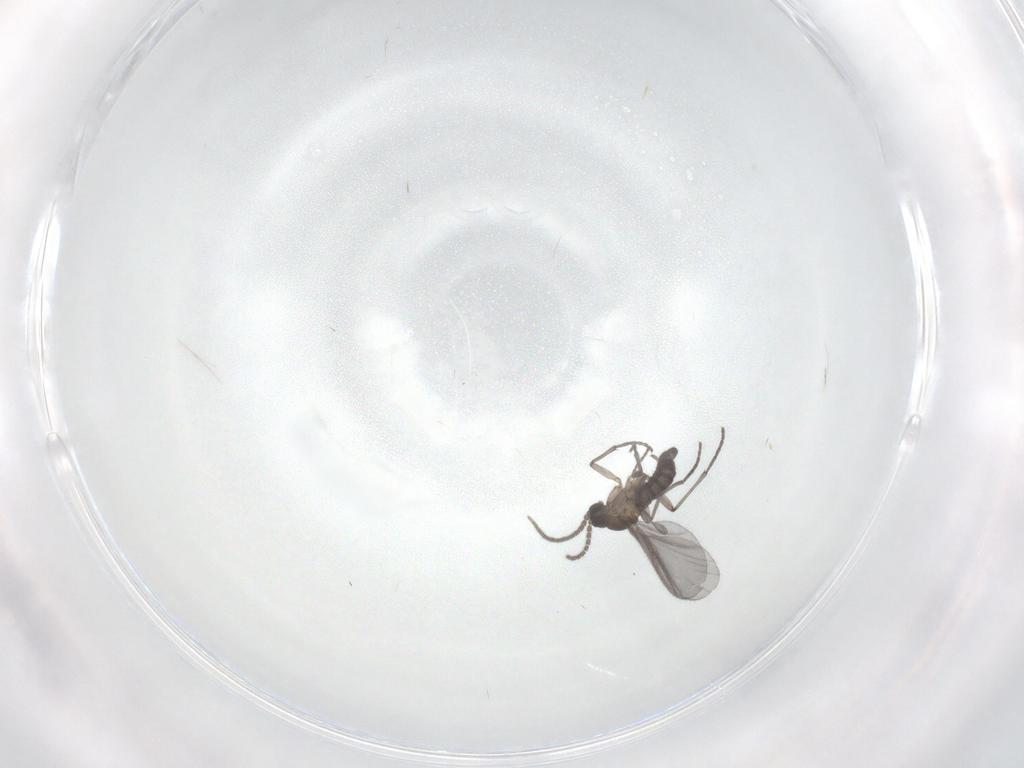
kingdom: Animalia
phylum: Arthropoda
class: Insecta
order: Diptera
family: Sciaridae
